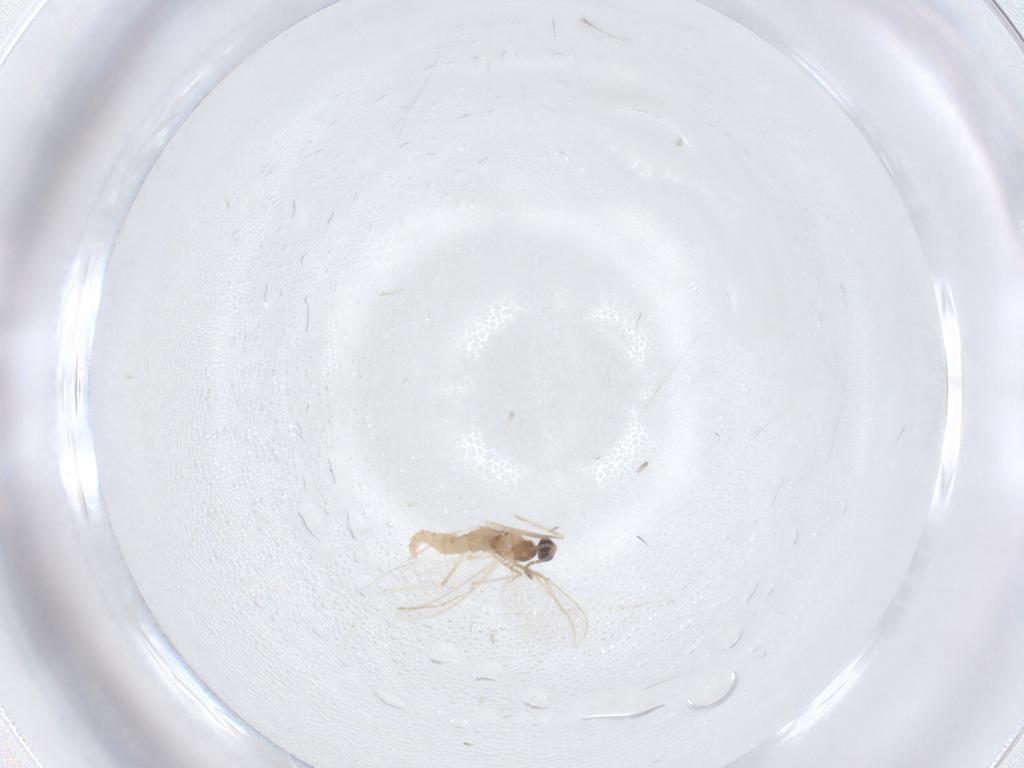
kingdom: Animalia
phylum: Arthropoda
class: Insecta
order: Diptera
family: Cecidomyiidae
